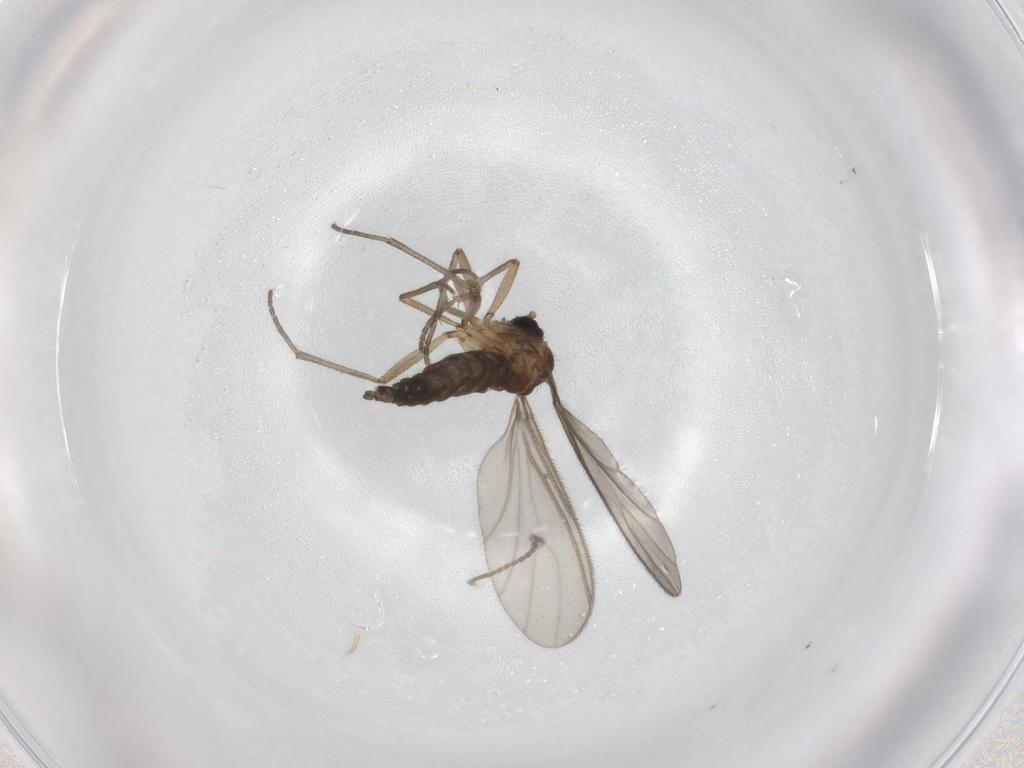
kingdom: Animalia
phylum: Arthropoda
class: Insecta
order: Diptera
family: Sciaridae
